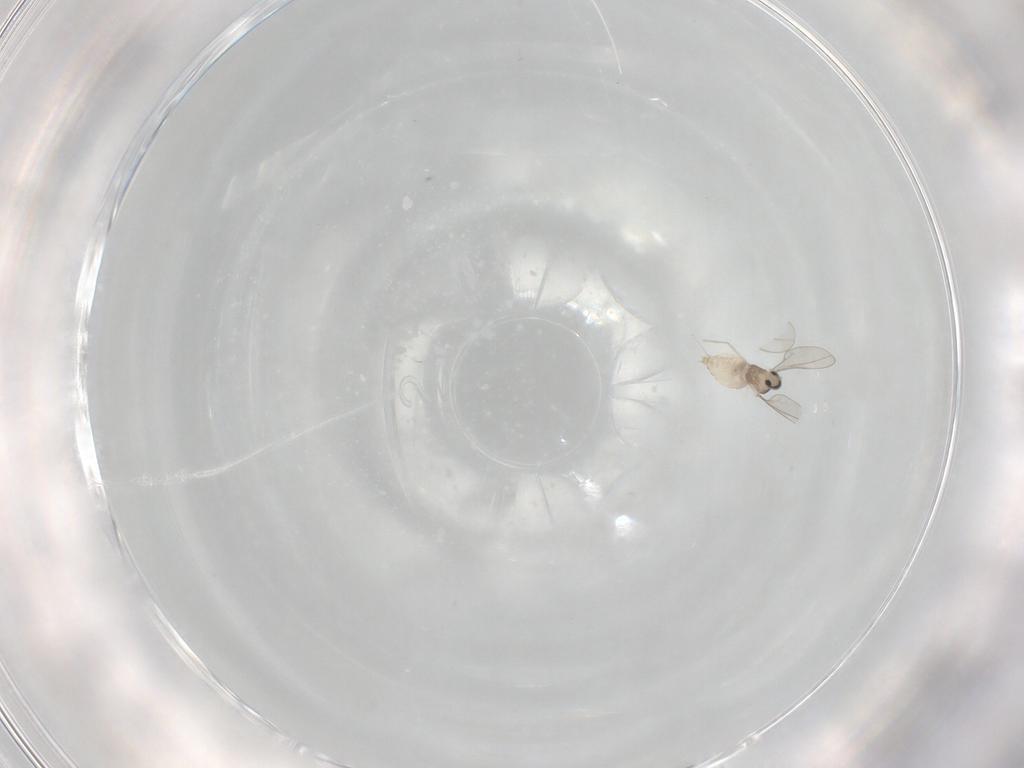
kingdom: Animalia
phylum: Arthropoda
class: Insecta
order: Diptera
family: Cecidomyiidae
